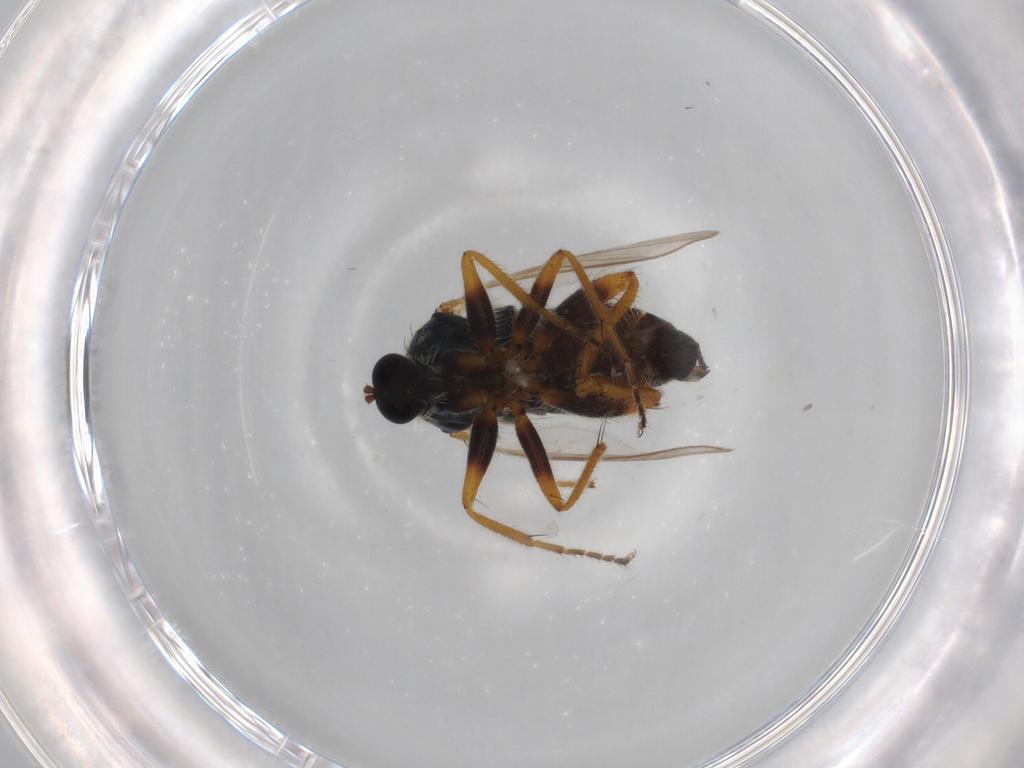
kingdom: Animalia
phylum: Arthropoda
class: Insecta
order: Diptera
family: Hybotidae
